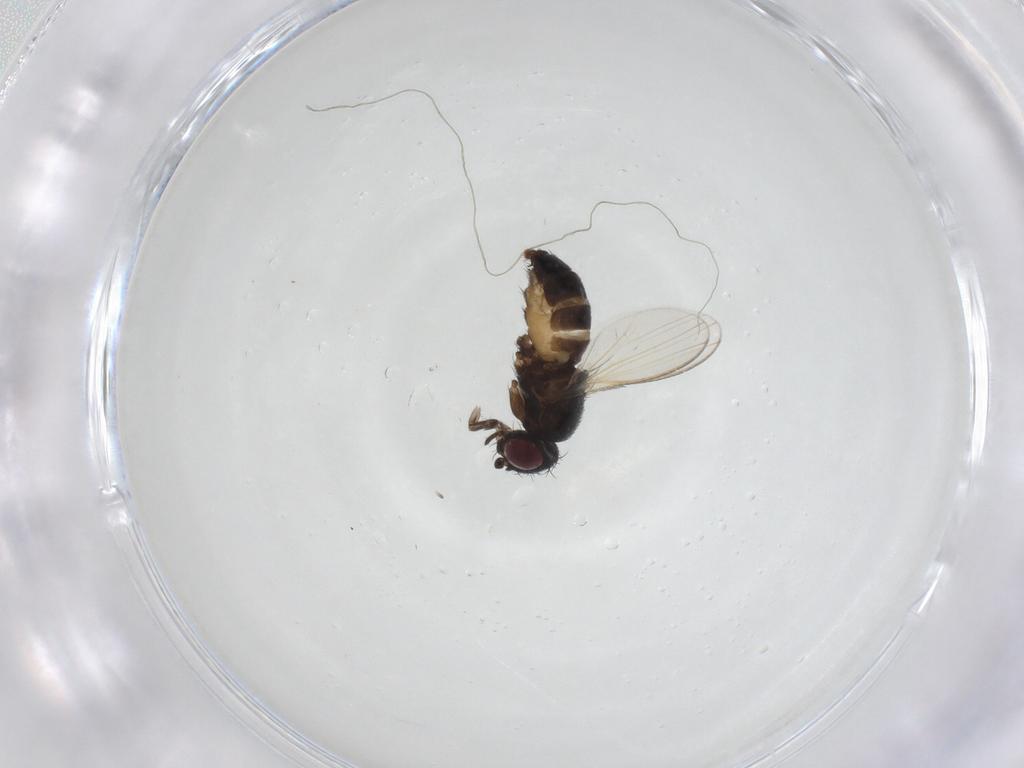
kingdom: Animalia
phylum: Arthropoda
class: Insecta
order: Diptera
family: Milichiidae
